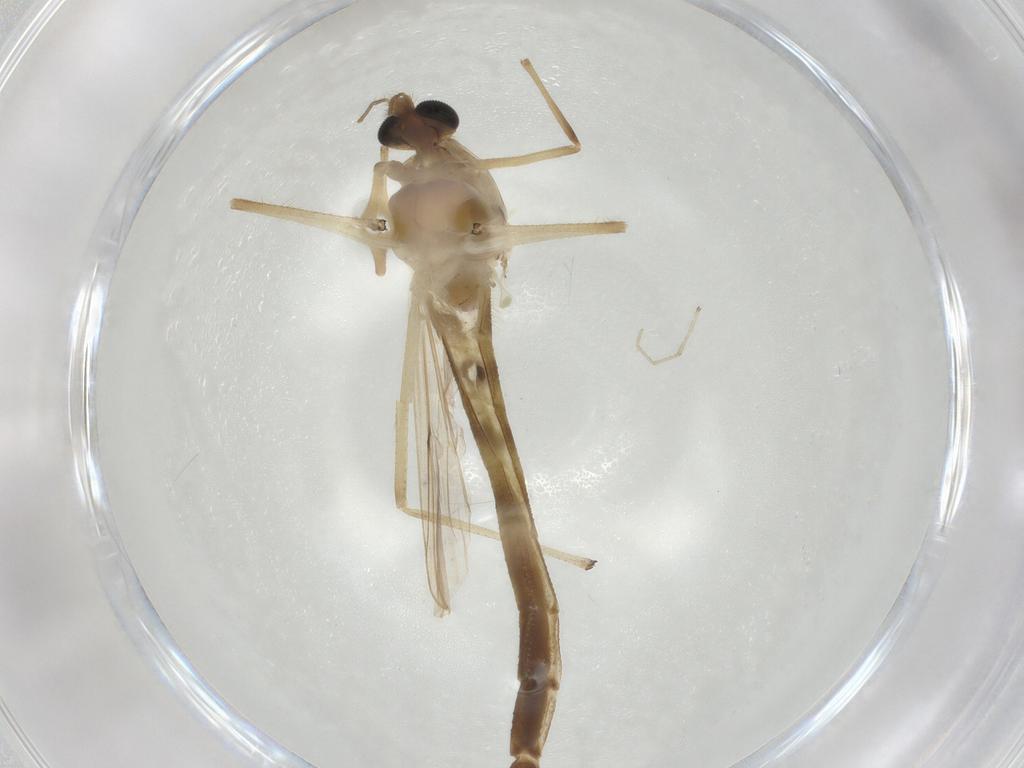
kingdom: Animalia
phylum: Arthropoda
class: Insecta
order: Diptera
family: Chironomidae
